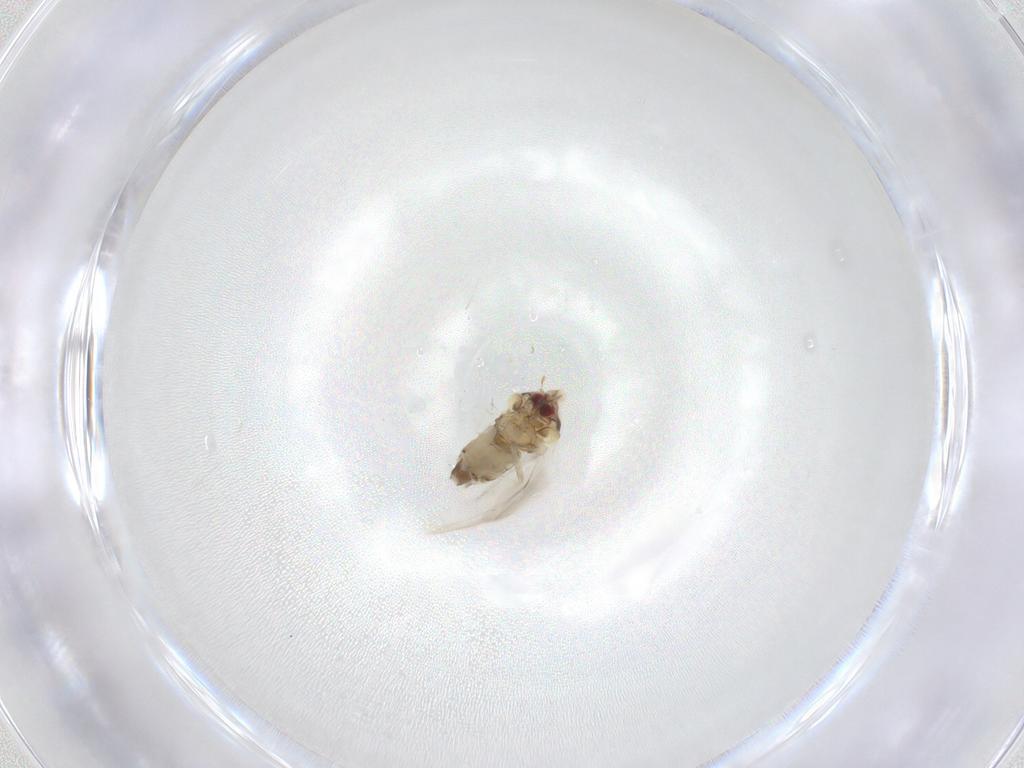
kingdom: Animalia
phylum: Arthropoda
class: Insecta
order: Hemiptera
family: Aleyrodidae
